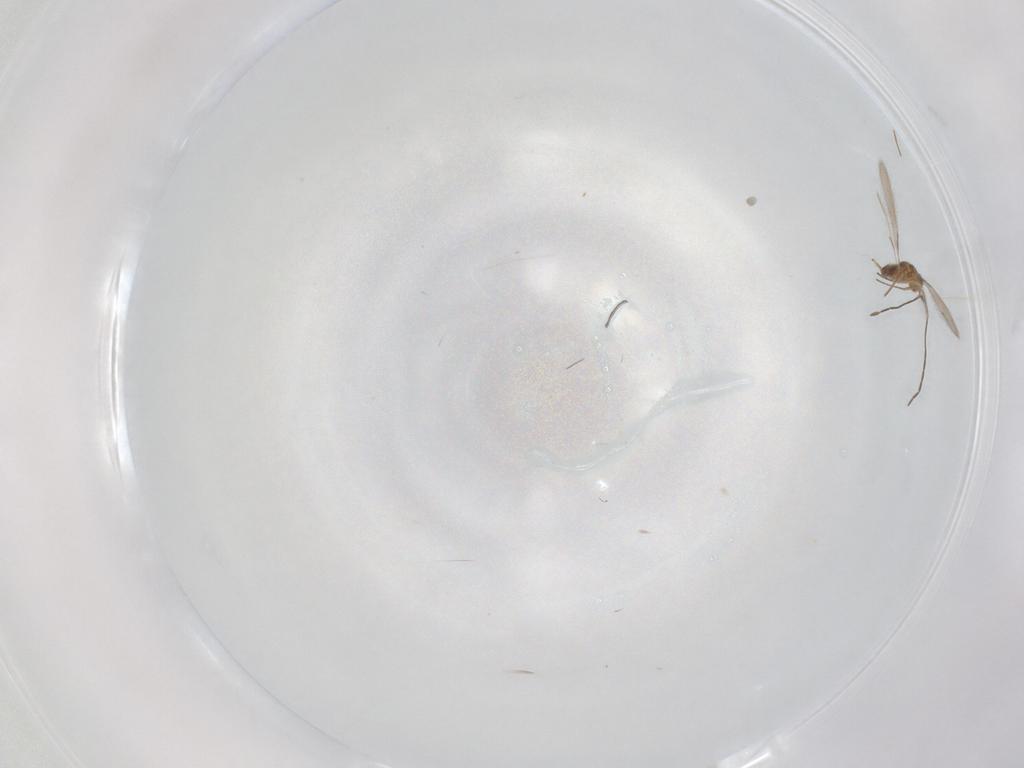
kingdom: Animalia
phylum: Arthropoda
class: Insecta
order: Hymenoptera
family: Mymaridae
